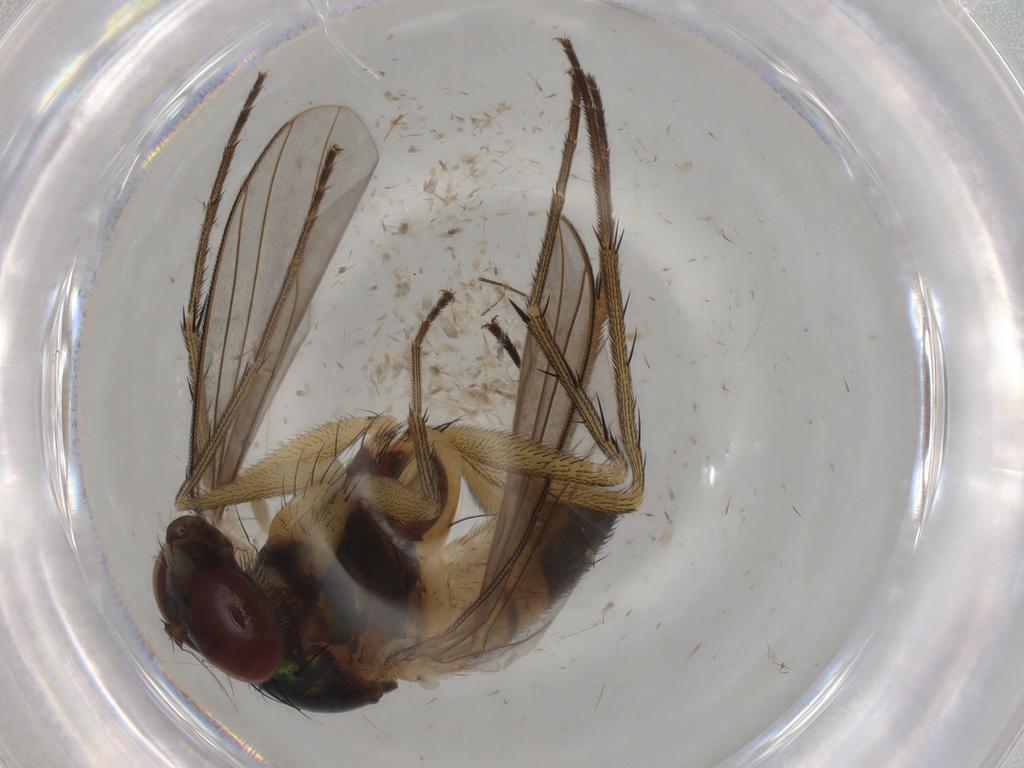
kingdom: Animalia
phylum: Arthropoda
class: Insecta
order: Diptera
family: Dolichopodidae
